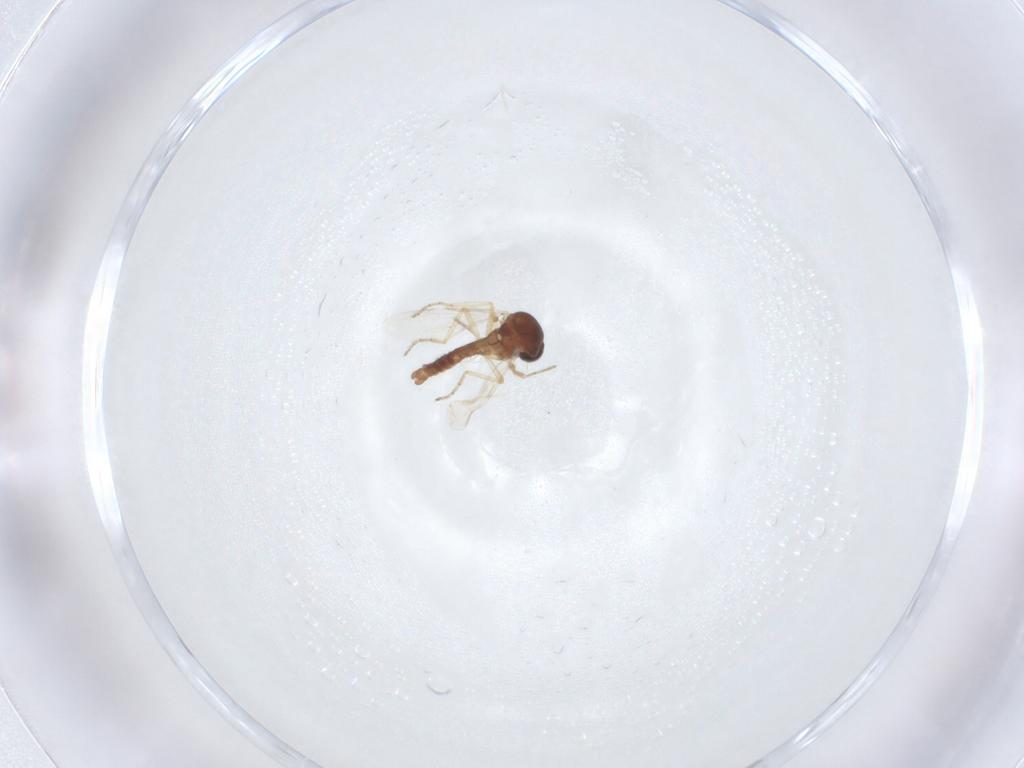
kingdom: Animalia
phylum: Arthropoda
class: Insecta
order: Diptera
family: Ceratopogonidae
